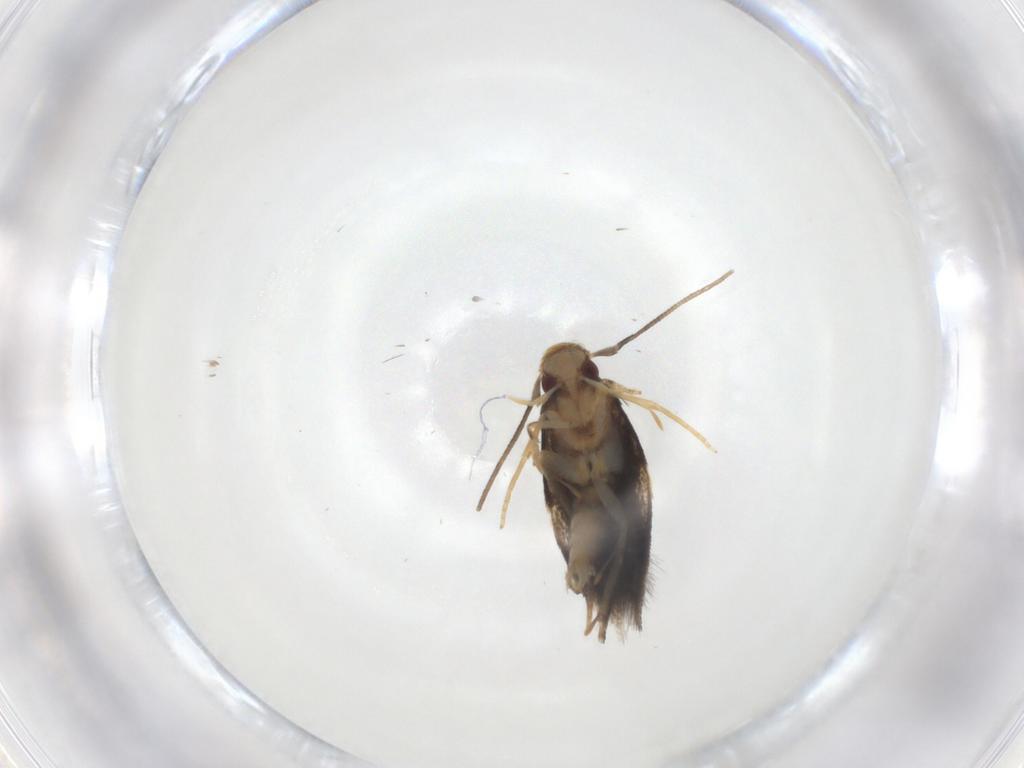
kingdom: Animalia
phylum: Arthropoda
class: Insecta
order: Lepidoptera
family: Gelechiidae
